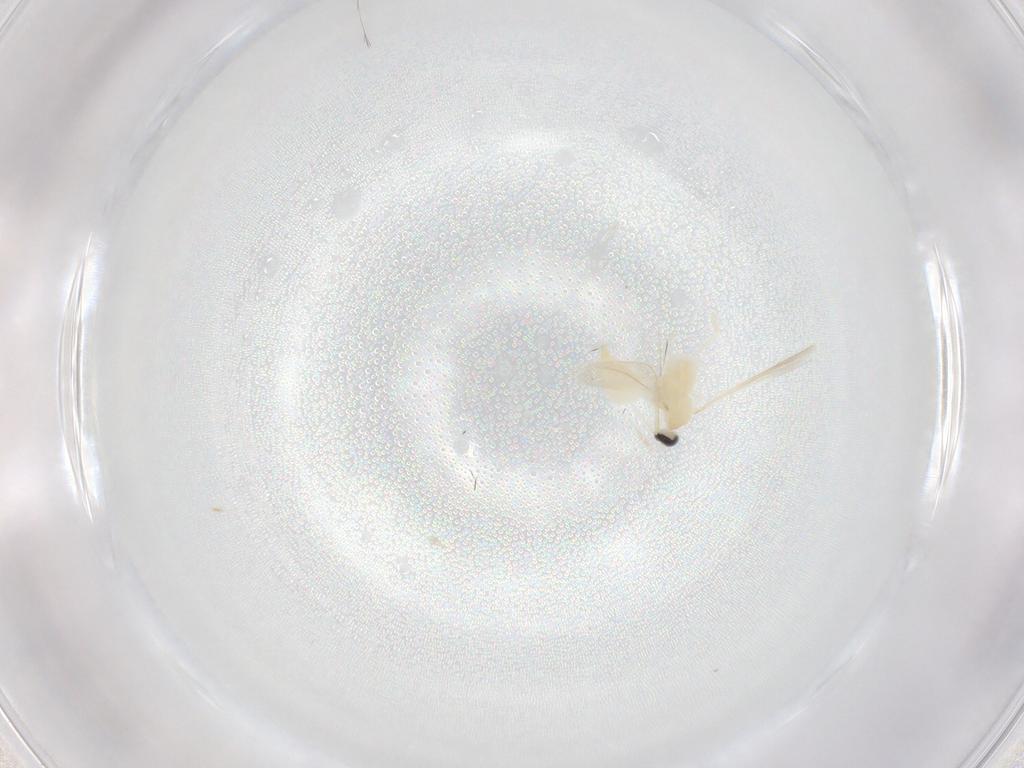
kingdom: Animalia
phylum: Arthropoda
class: Insecta
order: Diptera
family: Cecidomyiidae
